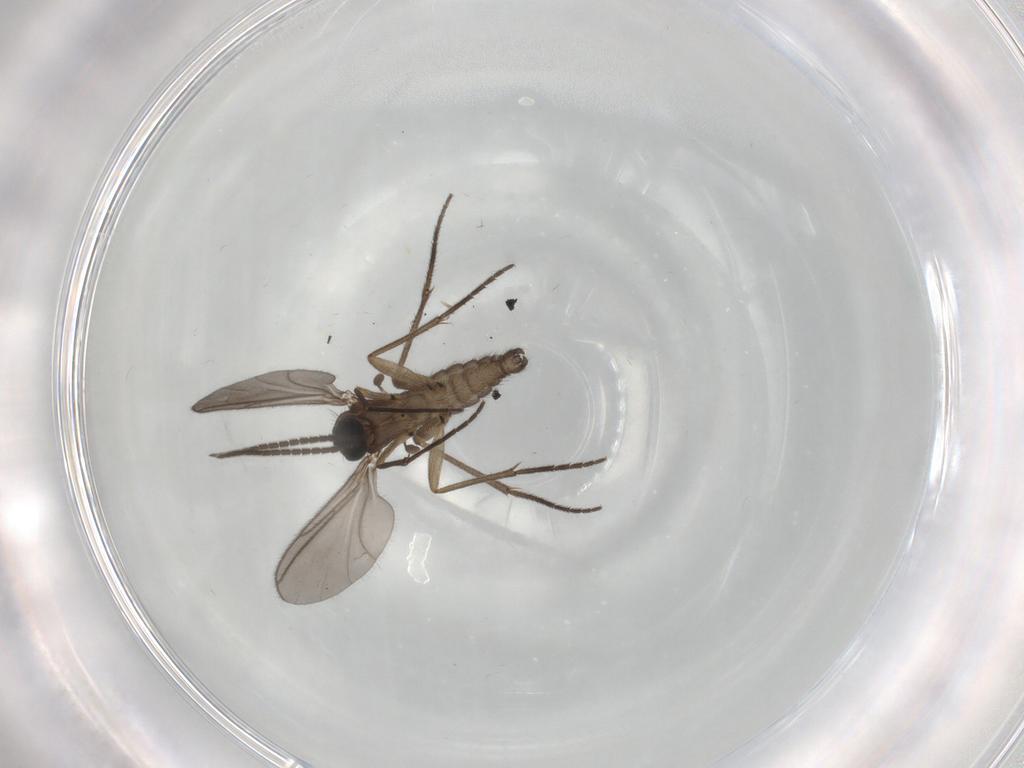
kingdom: Animalia
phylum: Arthropoda
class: Insecta
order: Diptera
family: Sciaridae
